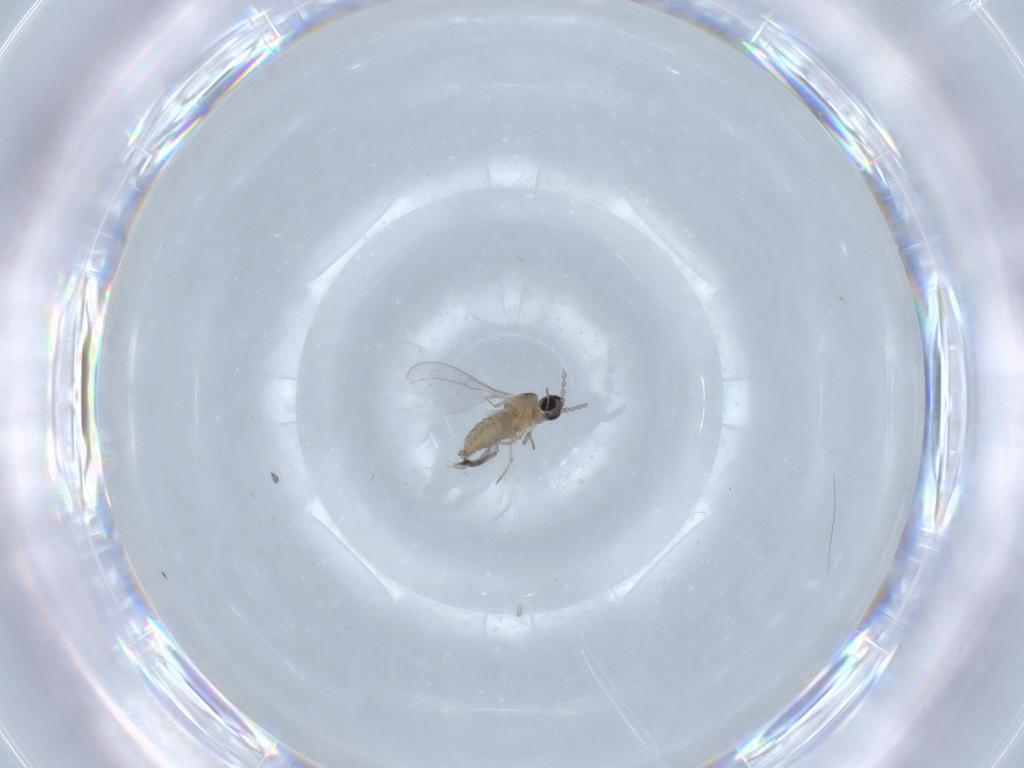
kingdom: Animalia
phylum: Arthropoda
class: Insecta
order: Diptera
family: Cecidomyiidae
